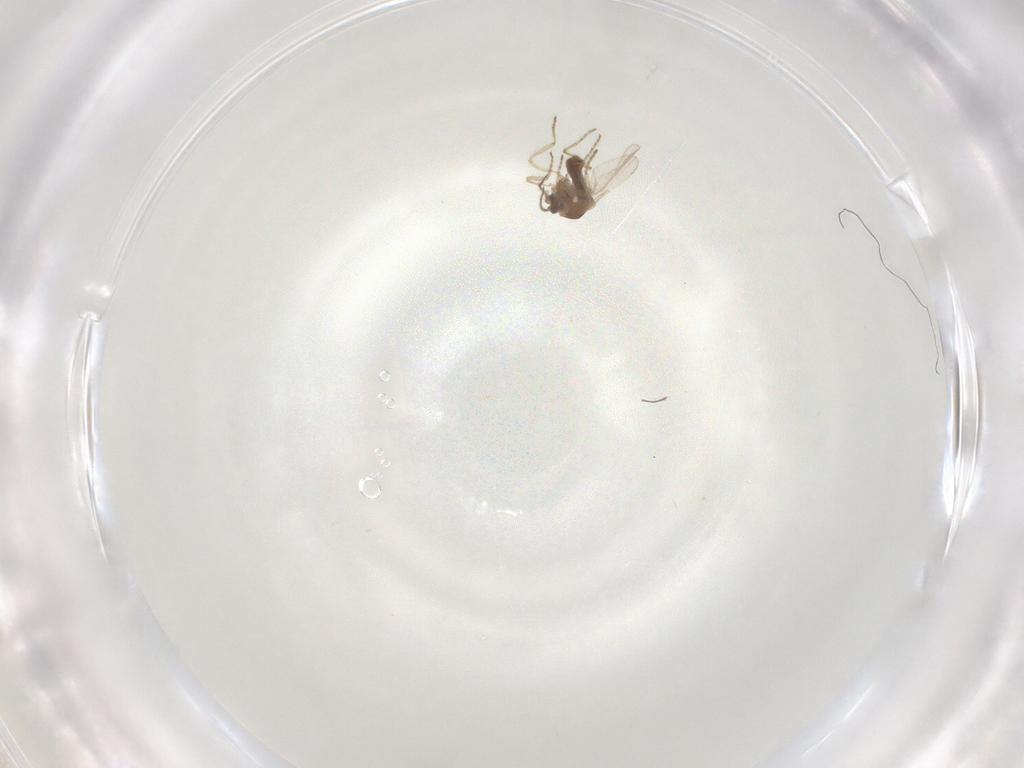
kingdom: Animalia
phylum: Arthropoda
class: Insecta
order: Diptera
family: Ceratopogonidae
